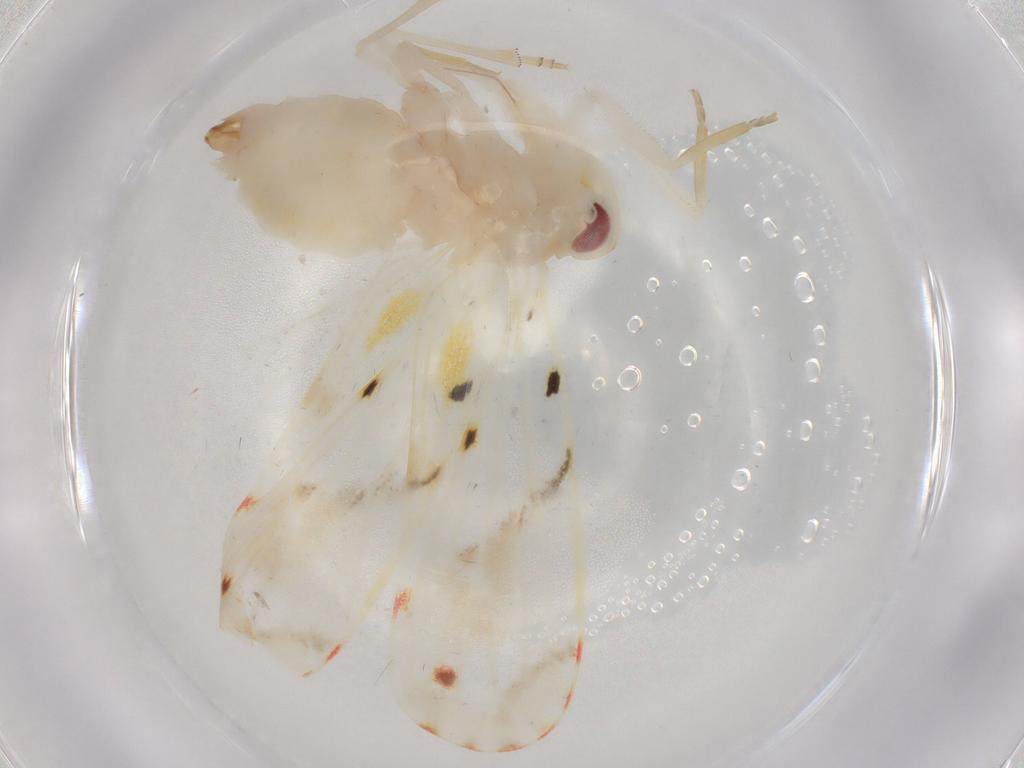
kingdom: Animalia
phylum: Arthropoda
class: Insecta
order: Hemiptera
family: Derbidae
